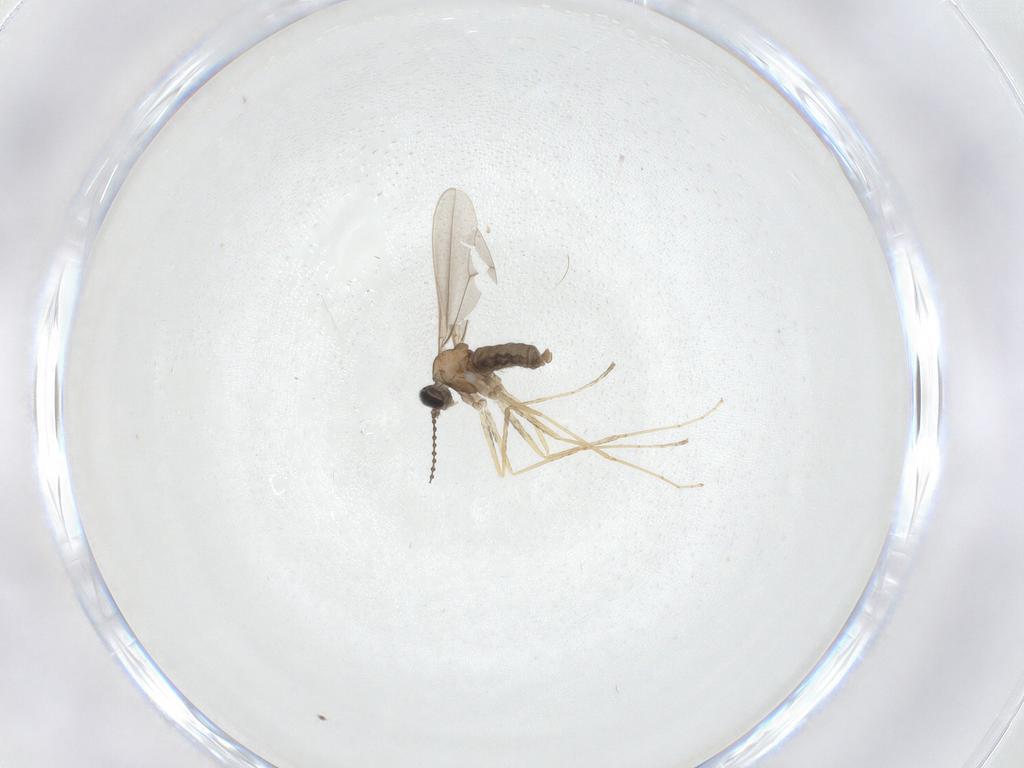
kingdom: Animalia
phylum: Arthropoda
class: Insecta
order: Diptera
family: Cecidomyiidae
